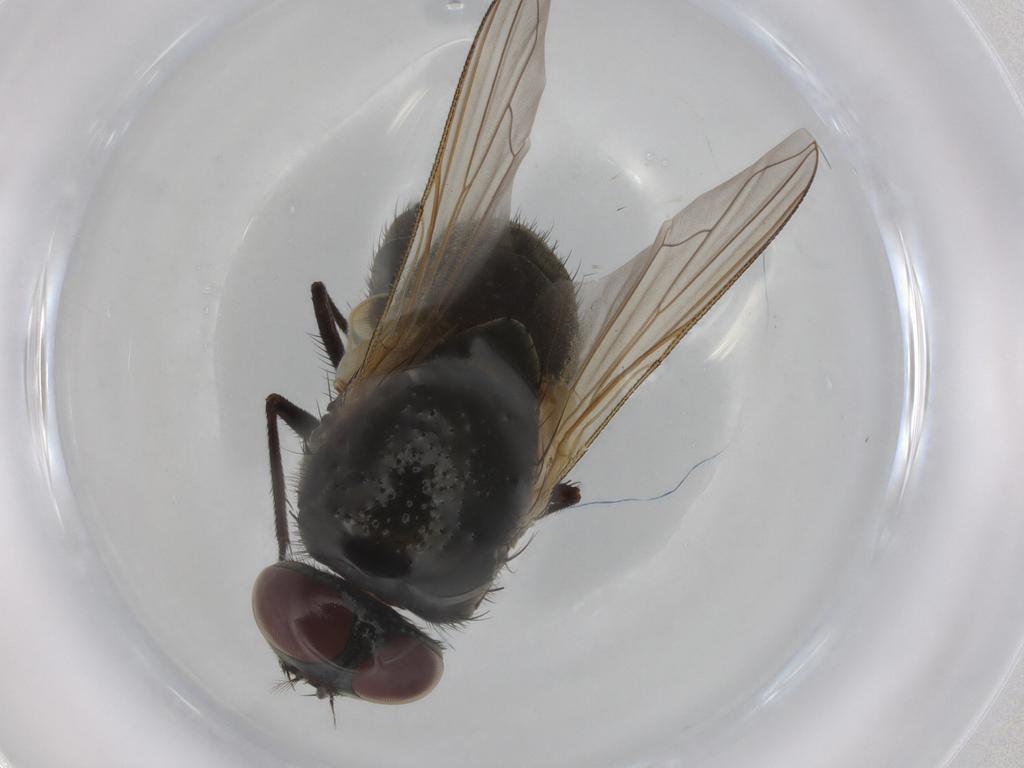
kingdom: Animalia
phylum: Arthropoda
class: Insecta
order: Diptera
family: Muscidae
